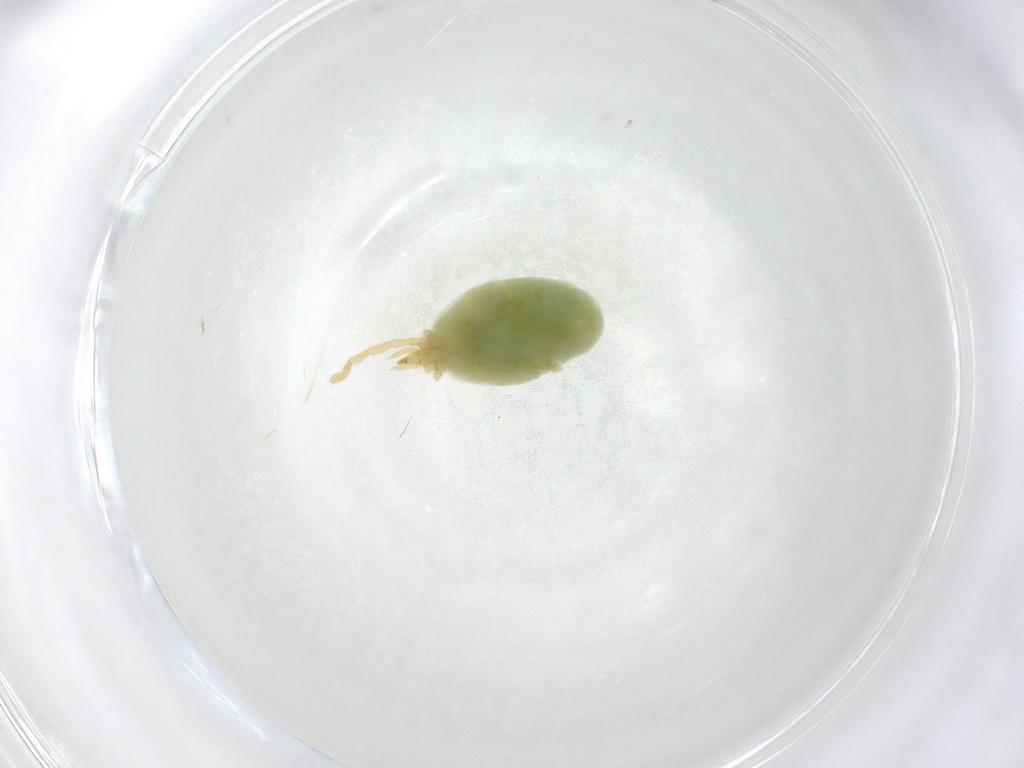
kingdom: Animalia
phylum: Arthropoda
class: Arachnida
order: Trombidiformes
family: Erythraeidae
